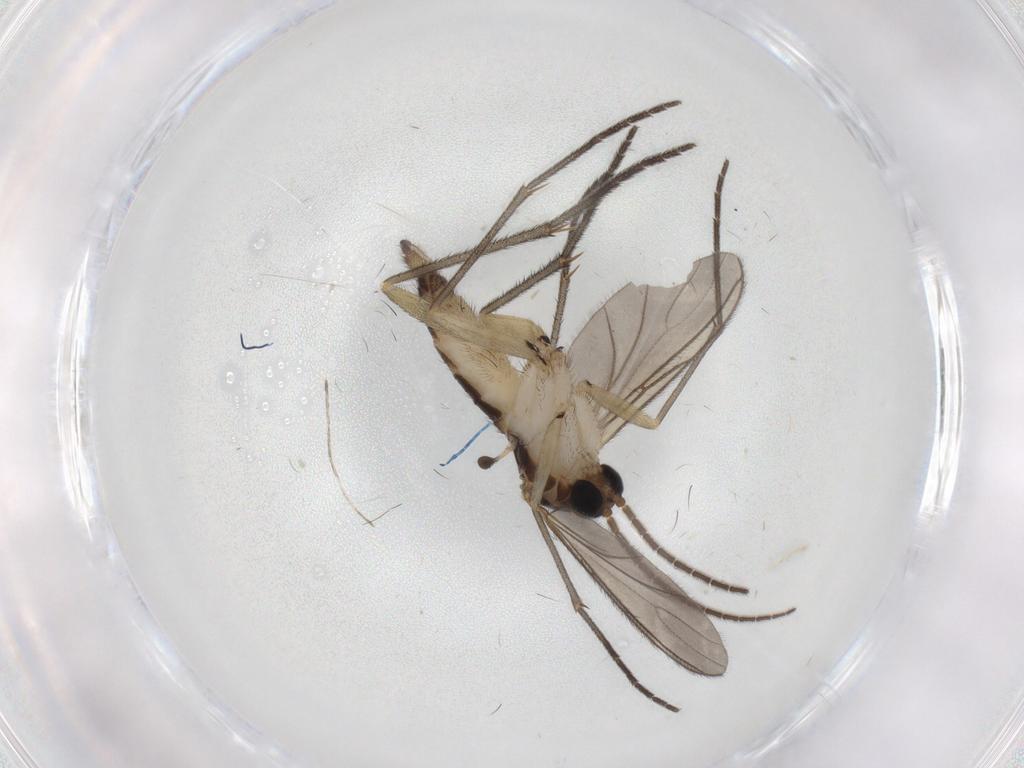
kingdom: Animalia
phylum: Arthropoda
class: Insecta
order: Diptera
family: Sciaridae
